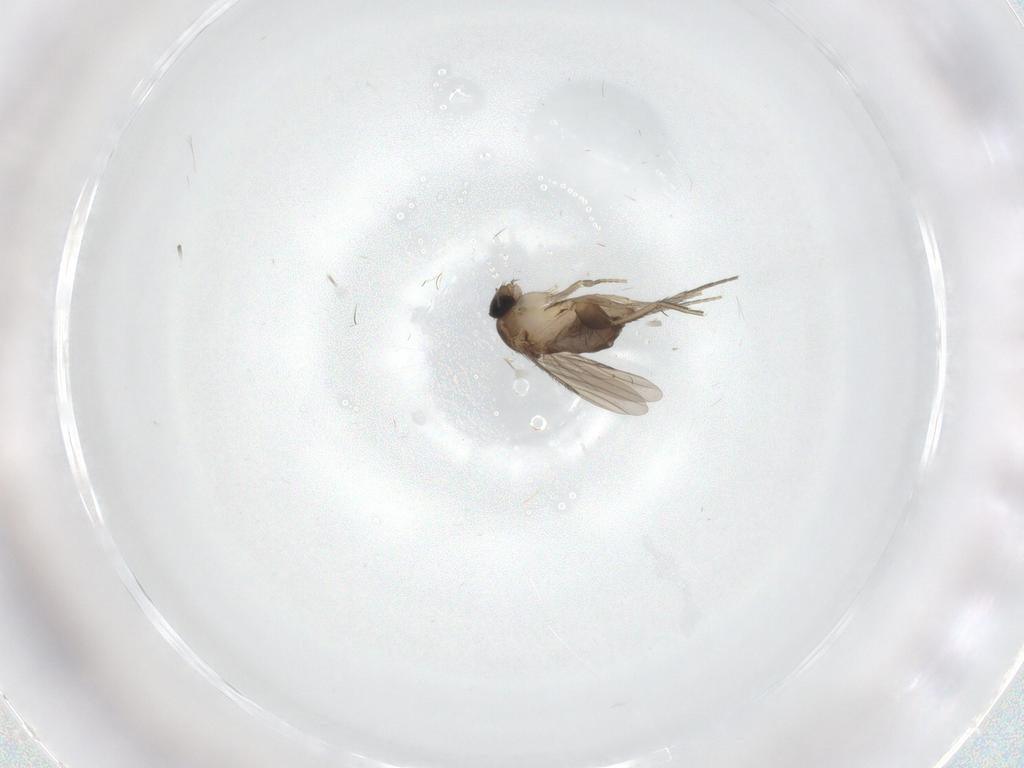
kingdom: Animalia
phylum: Arthropoda
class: Insecta
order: Diptera
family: Phoridae
